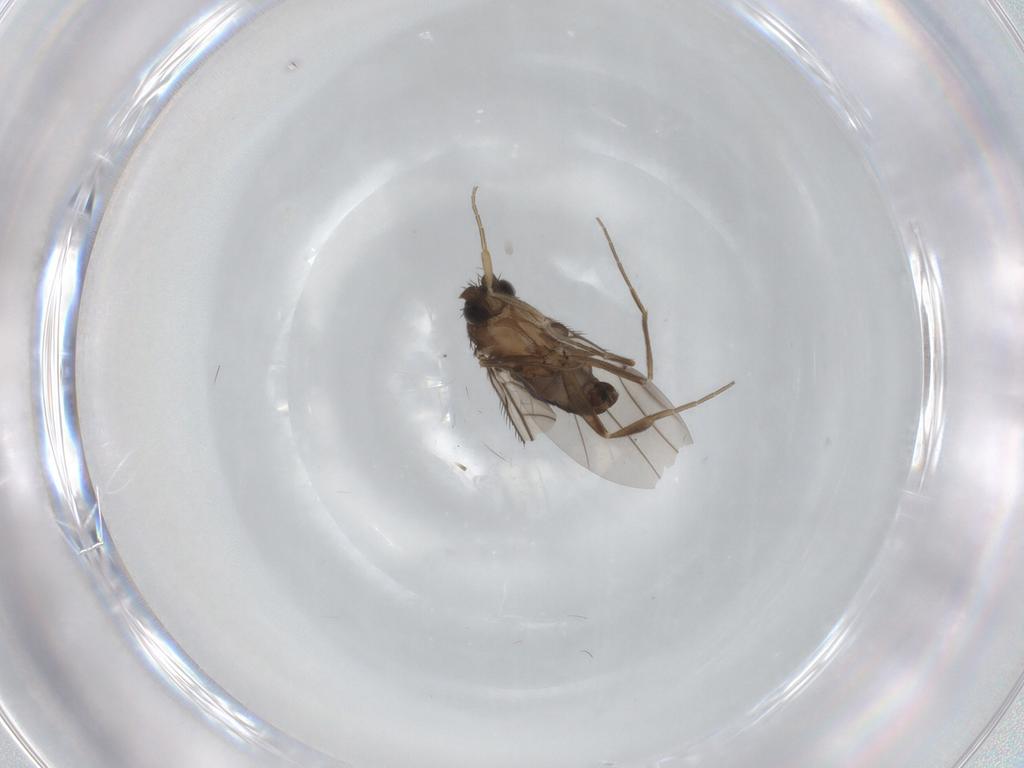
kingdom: Animalia
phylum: Arthropoda
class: Insecta
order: Diptera
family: Phoridae
